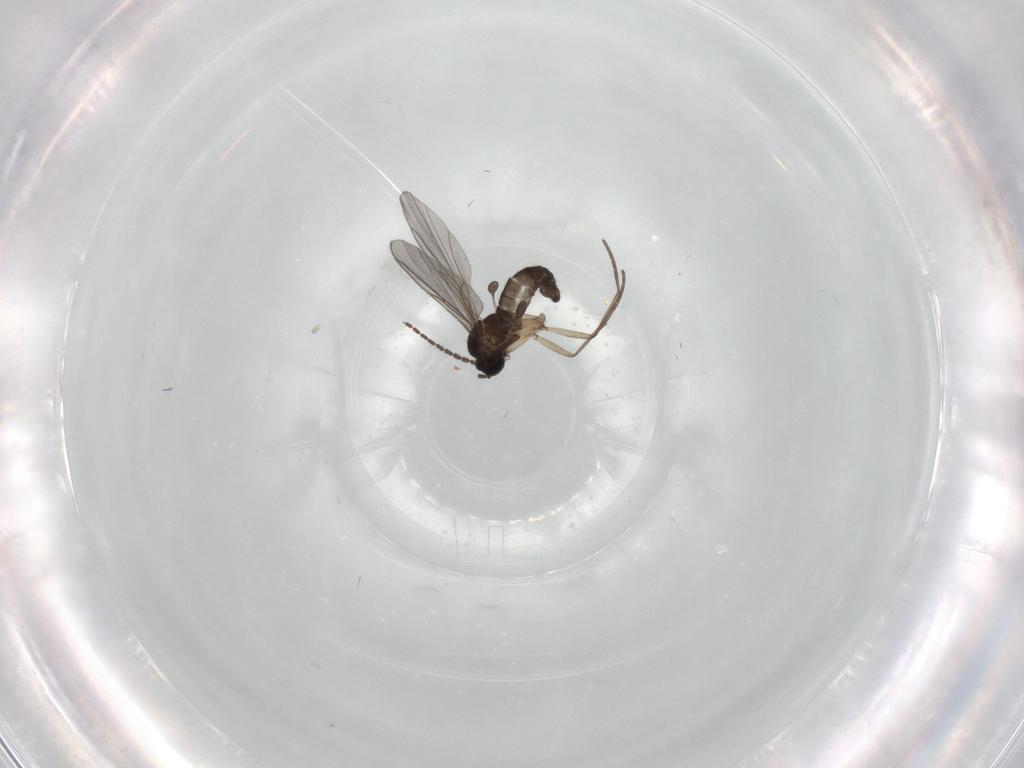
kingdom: Animalia
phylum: Arthropoda
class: Insecta
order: Diptera
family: Sciaridae
